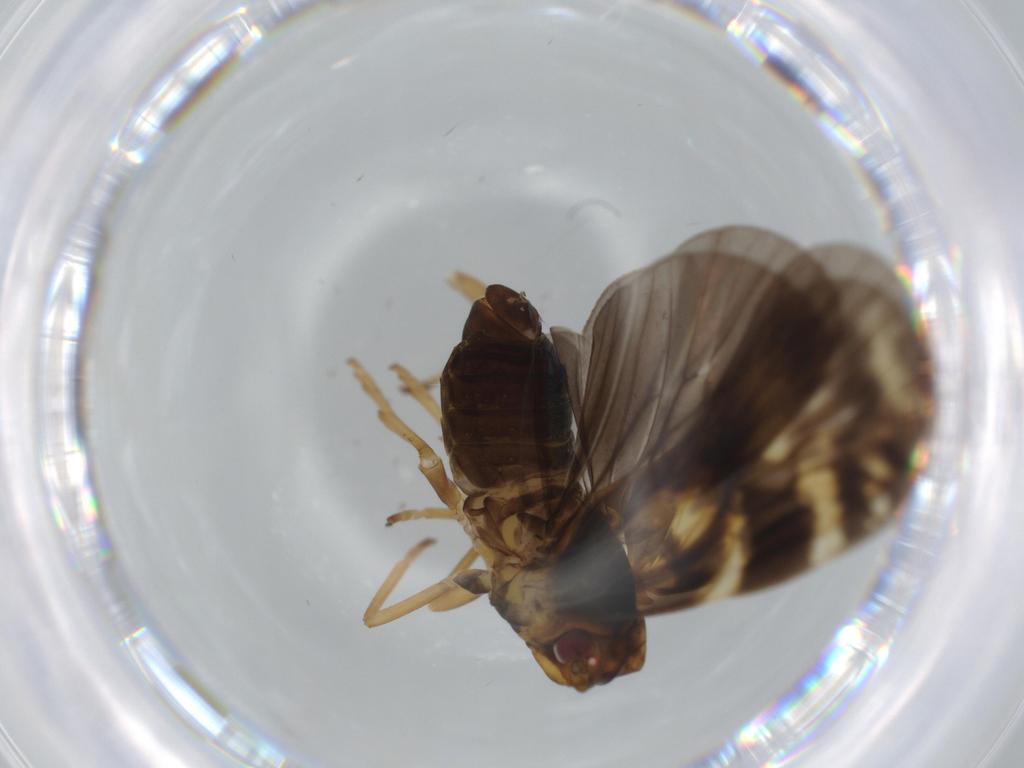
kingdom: Animalia
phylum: Arthropoda
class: Insecta
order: Hemiptera
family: Cixiidae
